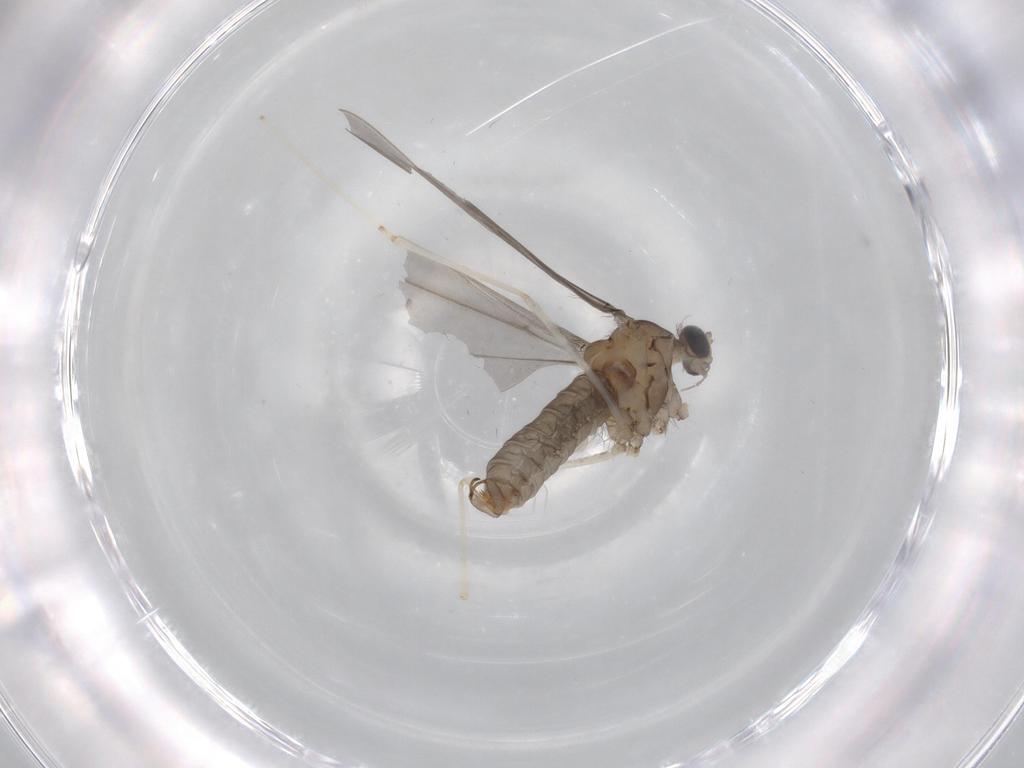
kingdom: Animalia
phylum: Arthropoda
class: Insecta
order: Diptera
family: Cecidomyiidae
